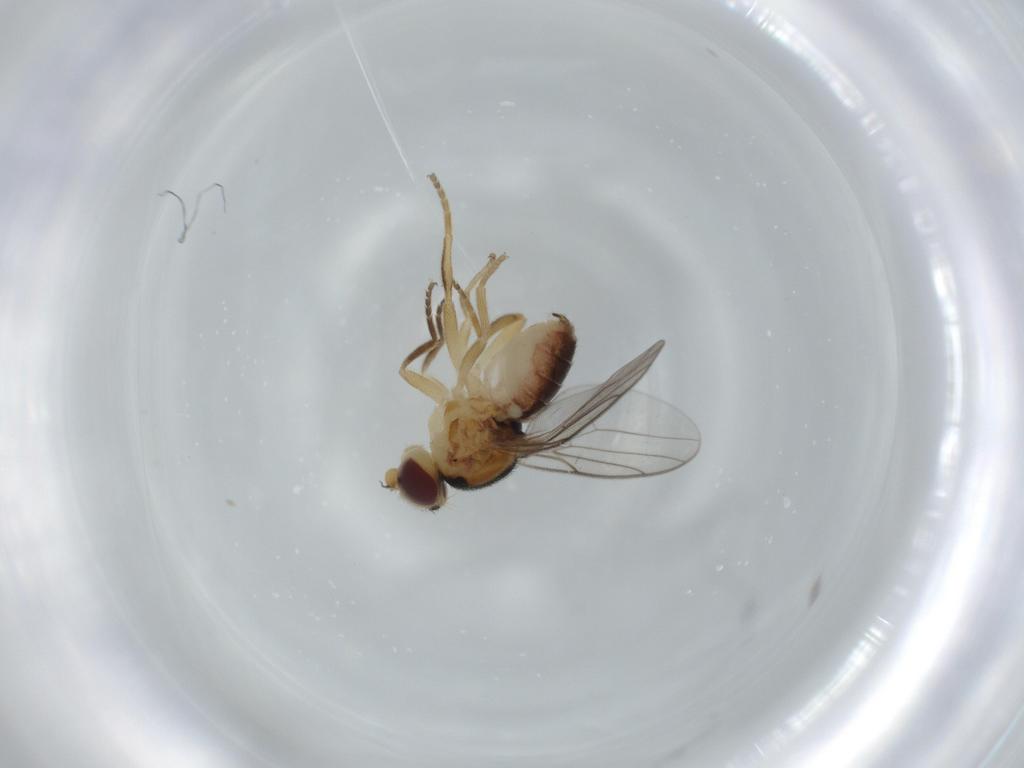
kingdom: Animalia
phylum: Arthropoda
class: Insecta
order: Diptera
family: Chloropidae
